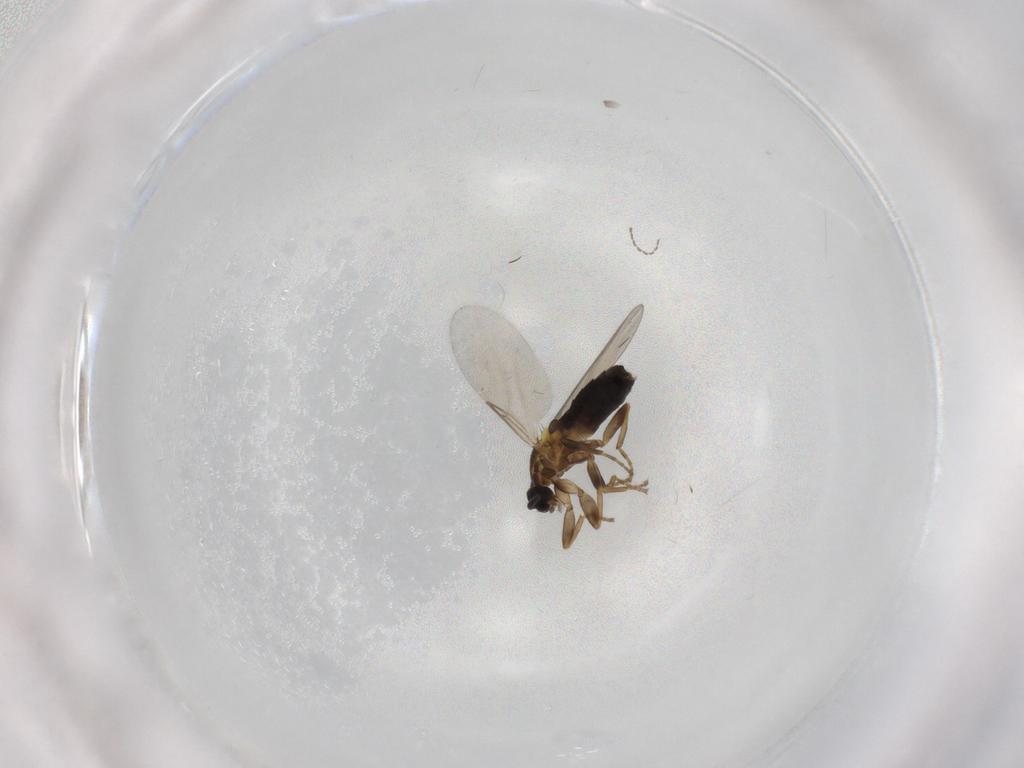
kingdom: Animalia
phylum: Arthropoda
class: Insecta
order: Diptera
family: Scatopsidae
